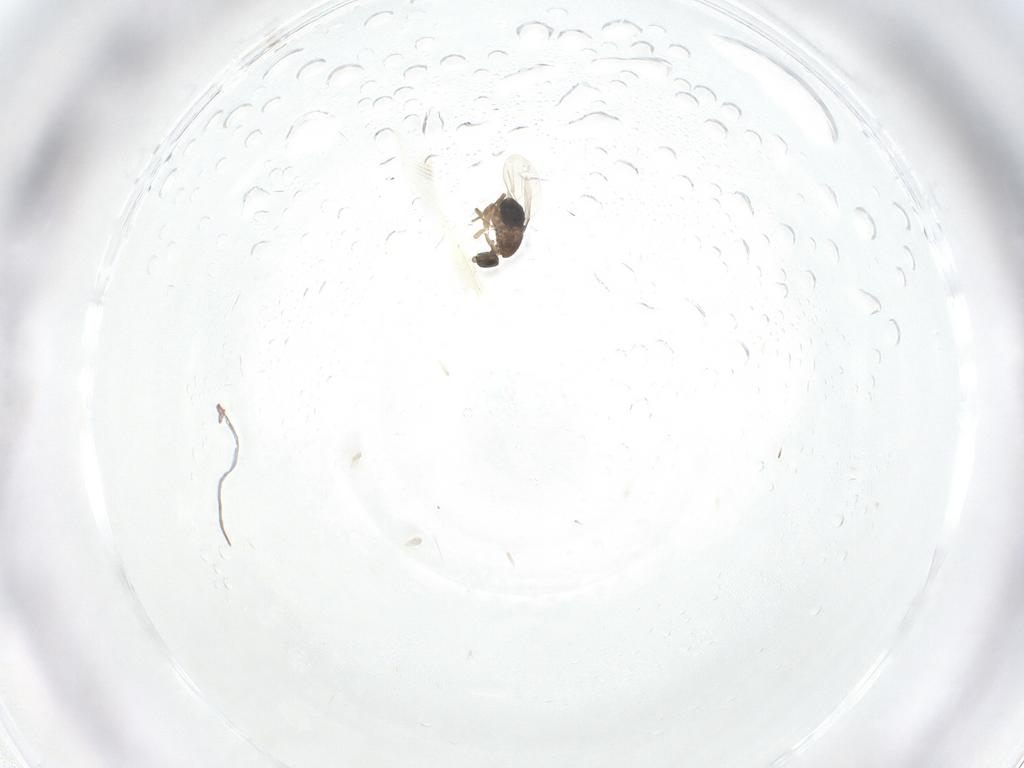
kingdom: Animalia
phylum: Arthropoda
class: Insecta
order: Diptera
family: Phoridae
